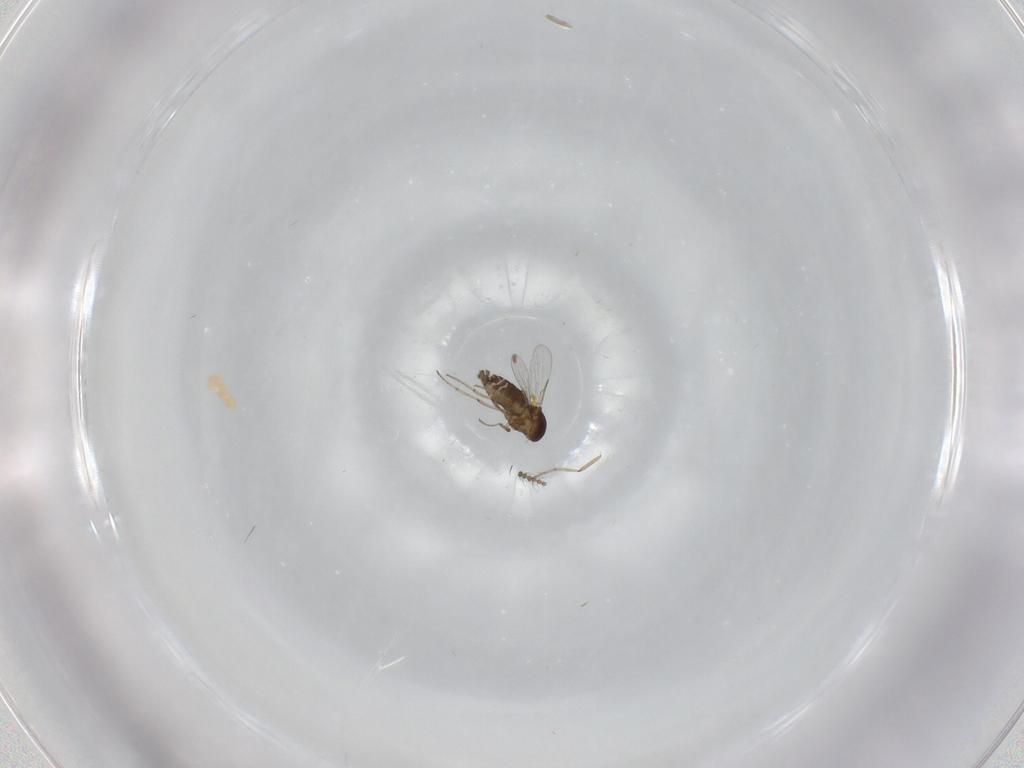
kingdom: Animalia
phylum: Arthropoda
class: Insecta
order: Diptera
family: Ceratopogonidae
